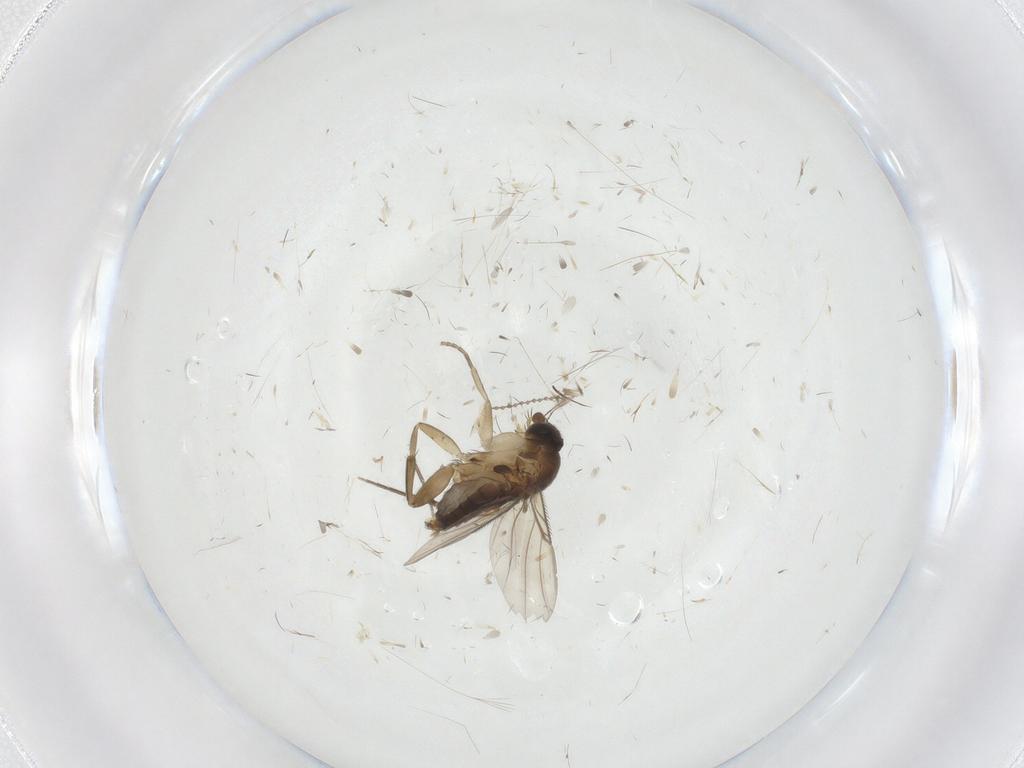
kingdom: Animalia
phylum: Arthropoda
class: Insecta
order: Diptera
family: Phoridae
